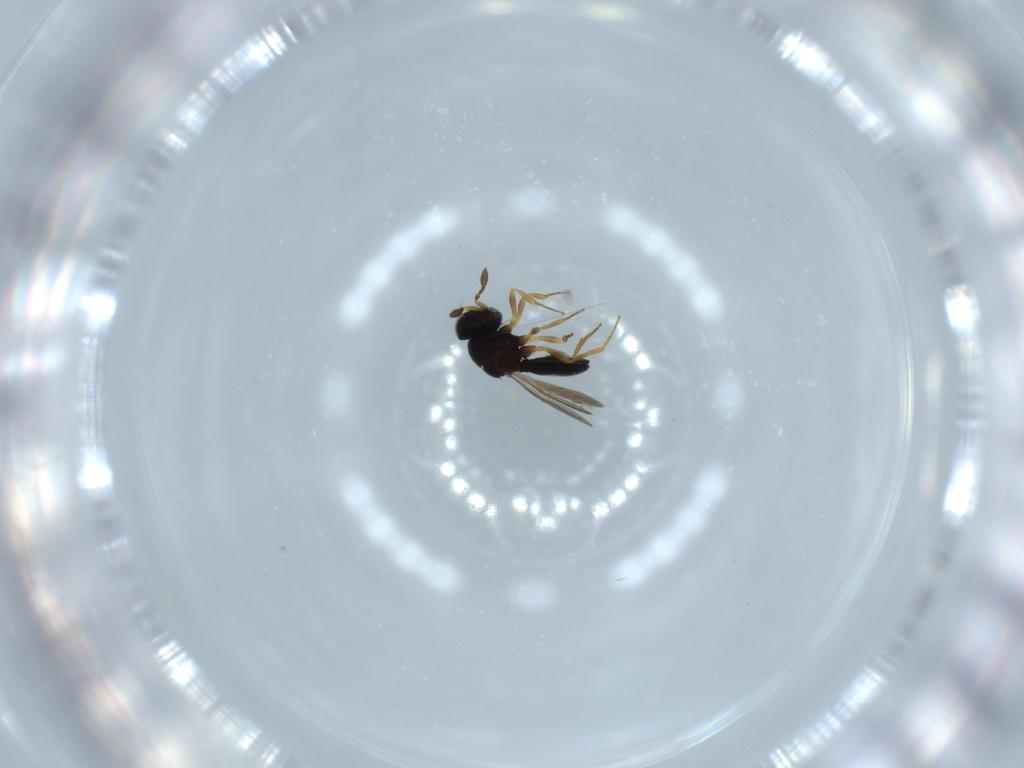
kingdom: Animalia
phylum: Arthropoda
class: Insecta
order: Hymenoptera
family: Scelionidae
